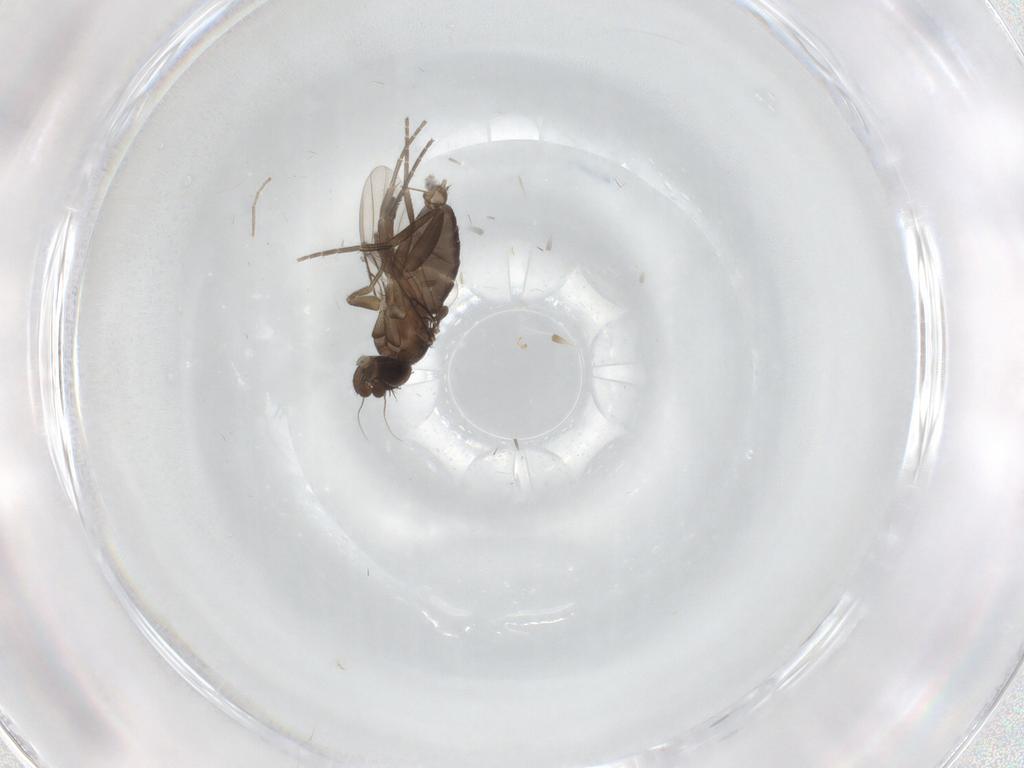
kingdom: Animalia
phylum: Arthropoda
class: Insecta
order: Diptera
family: Phoridae
